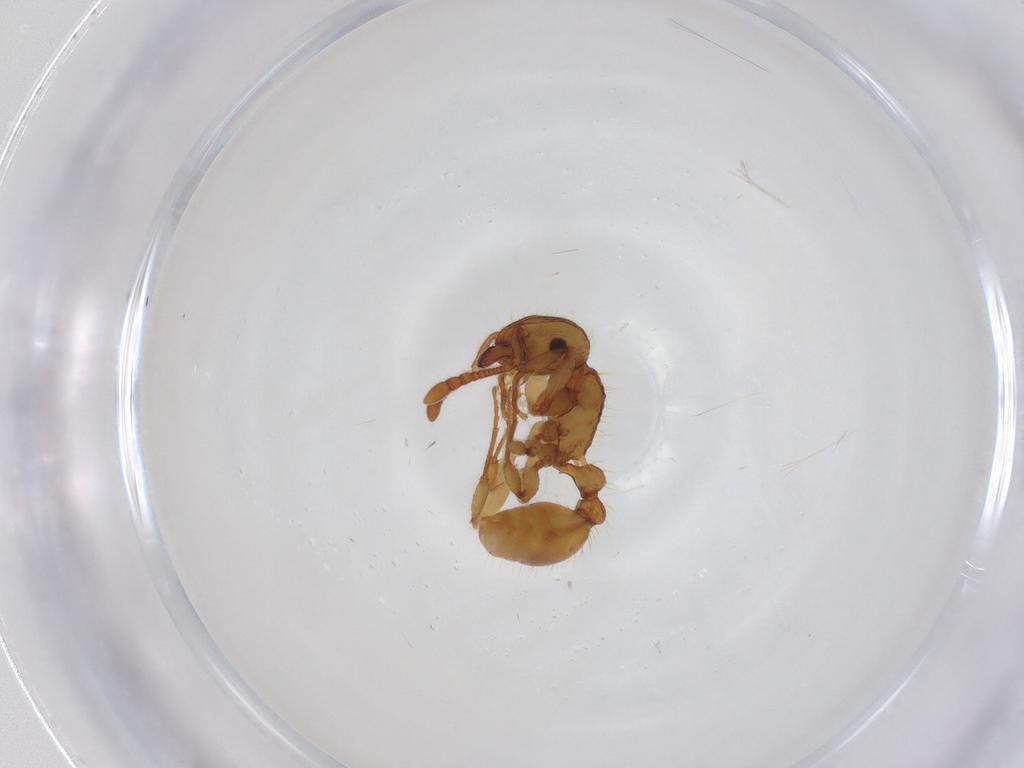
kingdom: Animalia
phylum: Arthropoda
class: Insecta
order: Hymenoptera
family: Formicidae
